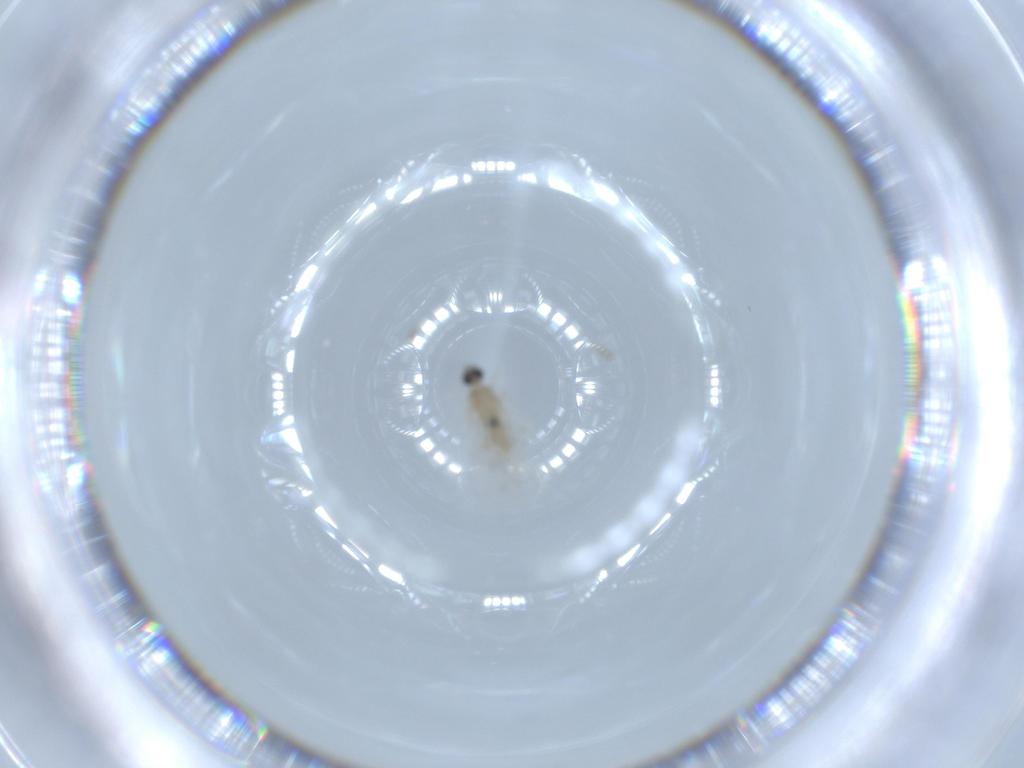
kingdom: Animalia
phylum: Arthropoda
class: Insecta
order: Diptera
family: Cecidomyiidae
